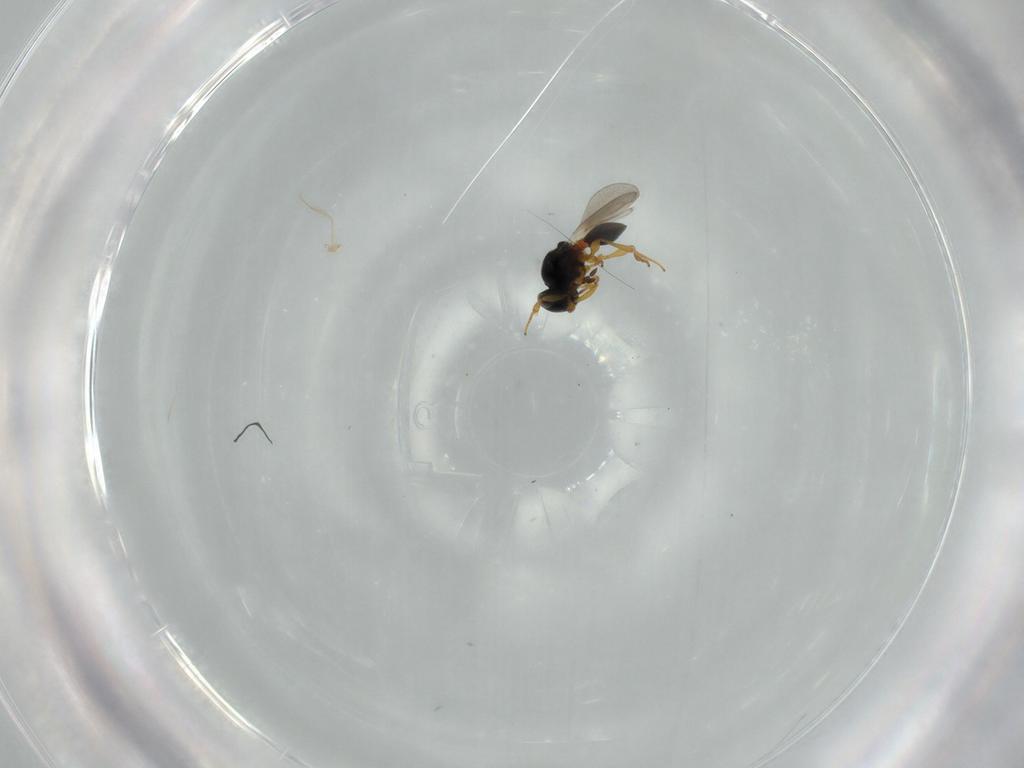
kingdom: Animalia
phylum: Arthropoda
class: Insecta
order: Hymenoptera
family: Platygastridae
